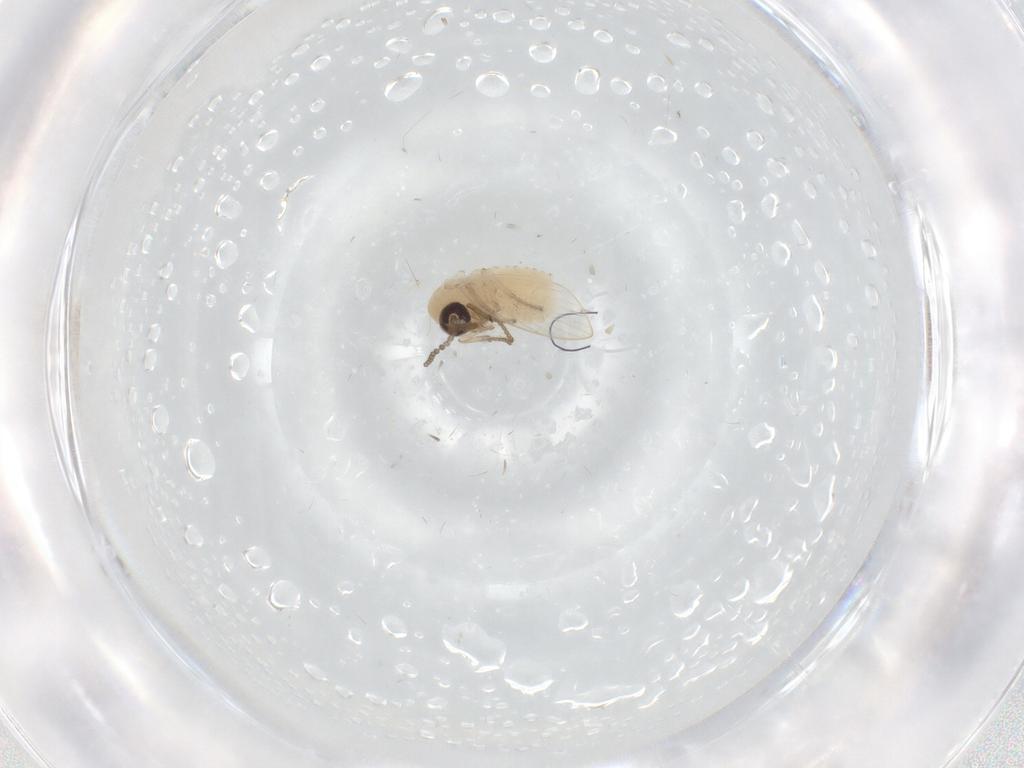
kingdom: Animalia
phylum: Arthropoda
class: Insecta
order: Diptera
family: Psychodidae
